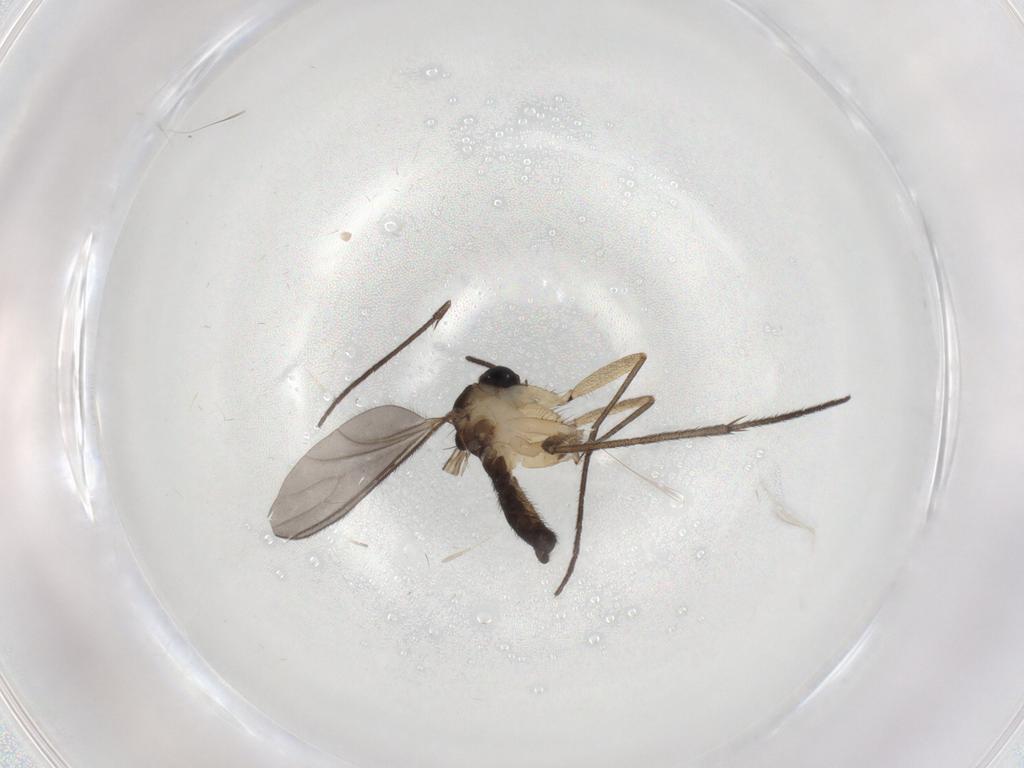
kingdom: Animalia
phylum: Arthropoda
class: Insecta
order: Diptera
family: Sciaridae
